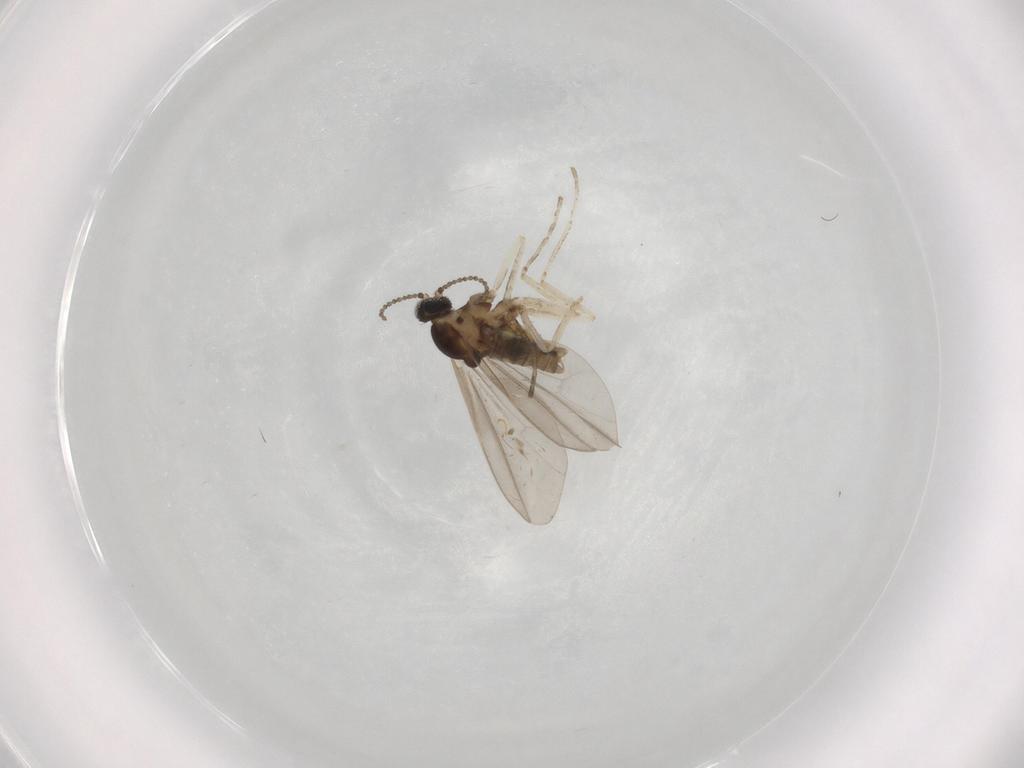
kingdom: Animalia
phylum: Arthropoda
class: Insecta
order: Diptera
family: Cecidomyiidae
